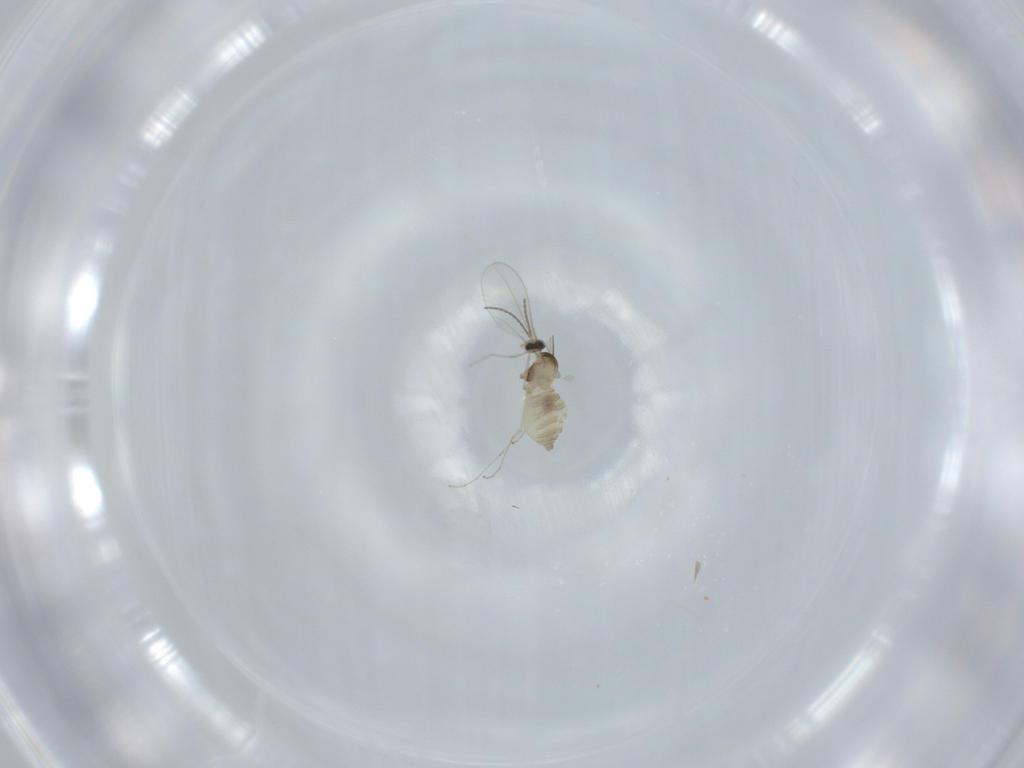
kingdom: Animalia
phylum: Arthropoda
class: Insecta
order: Diptera
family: Cecidomyiidae
